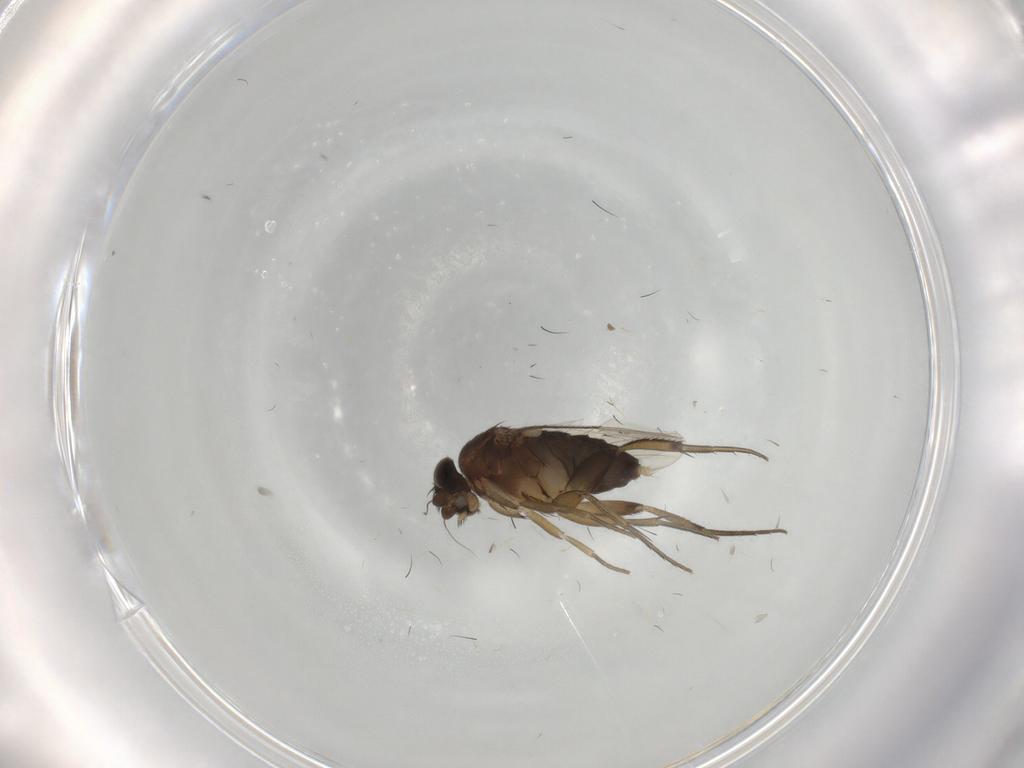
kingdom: Animalia
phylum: Arthropoda
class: Insecta
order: Diptera
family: Phoridae
